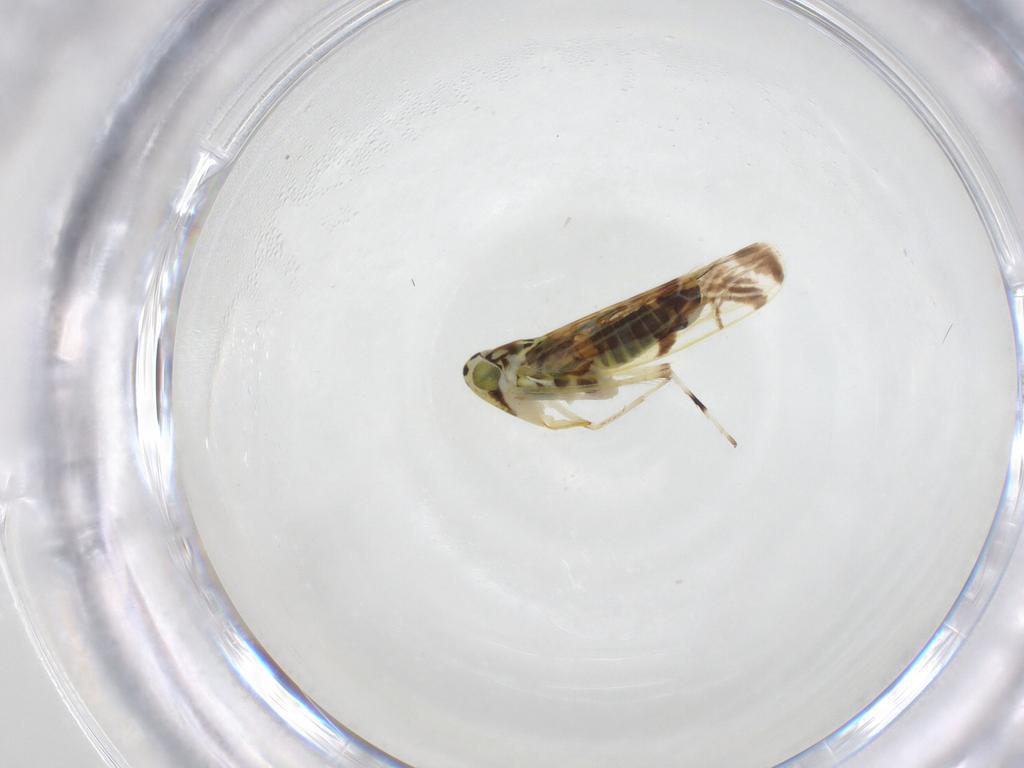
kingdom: Animalia
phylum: Arthropoda
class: Insecta
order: Hemiptera
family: Cicadellidae
